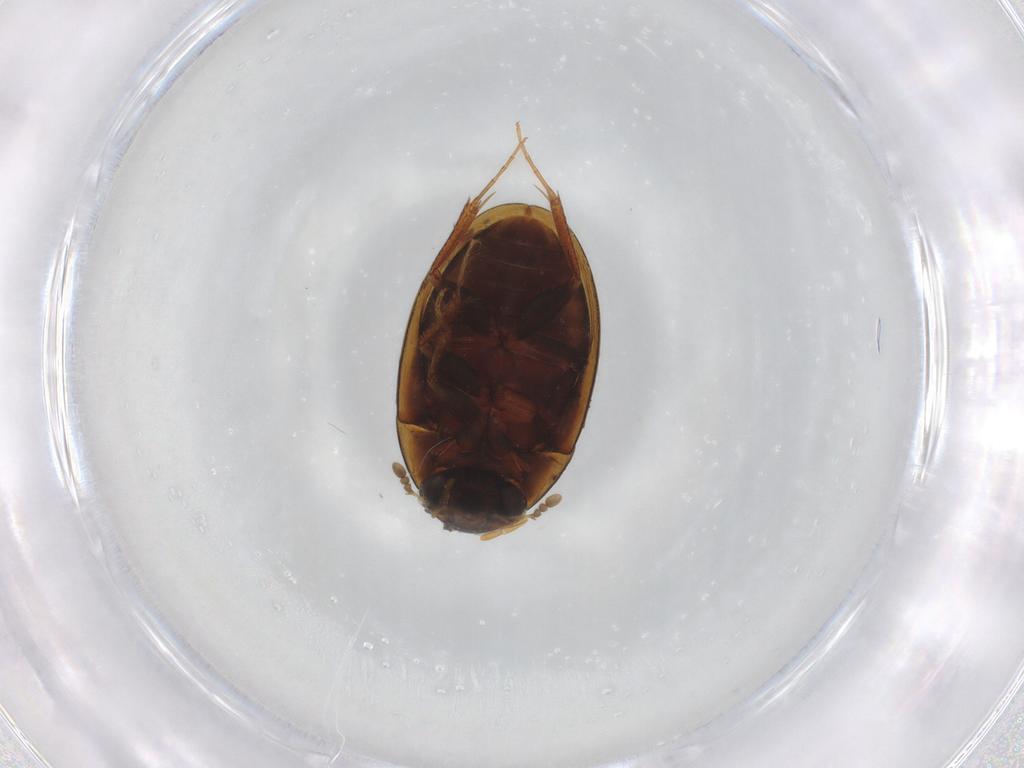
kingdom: Animalia
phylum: Arthropoda
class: Insecta
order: Coleoptera
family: Hydrophilidae
